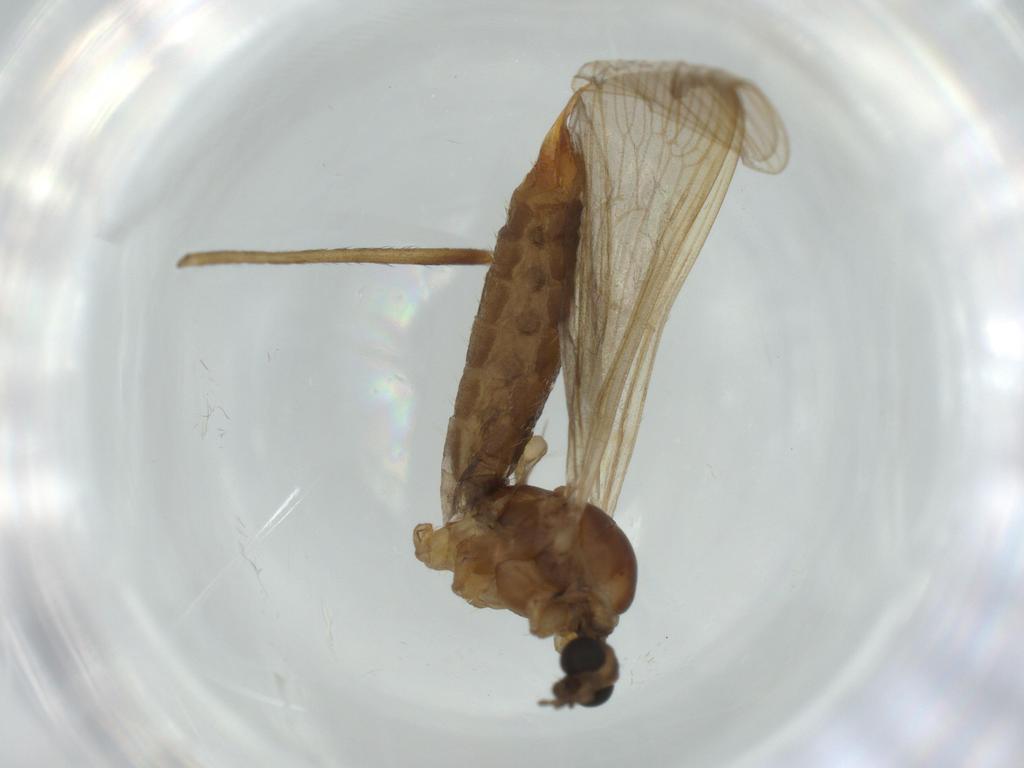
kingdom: Animalia
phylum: Arthropoda
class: Insecta
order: Diptera
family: Limoniidae
